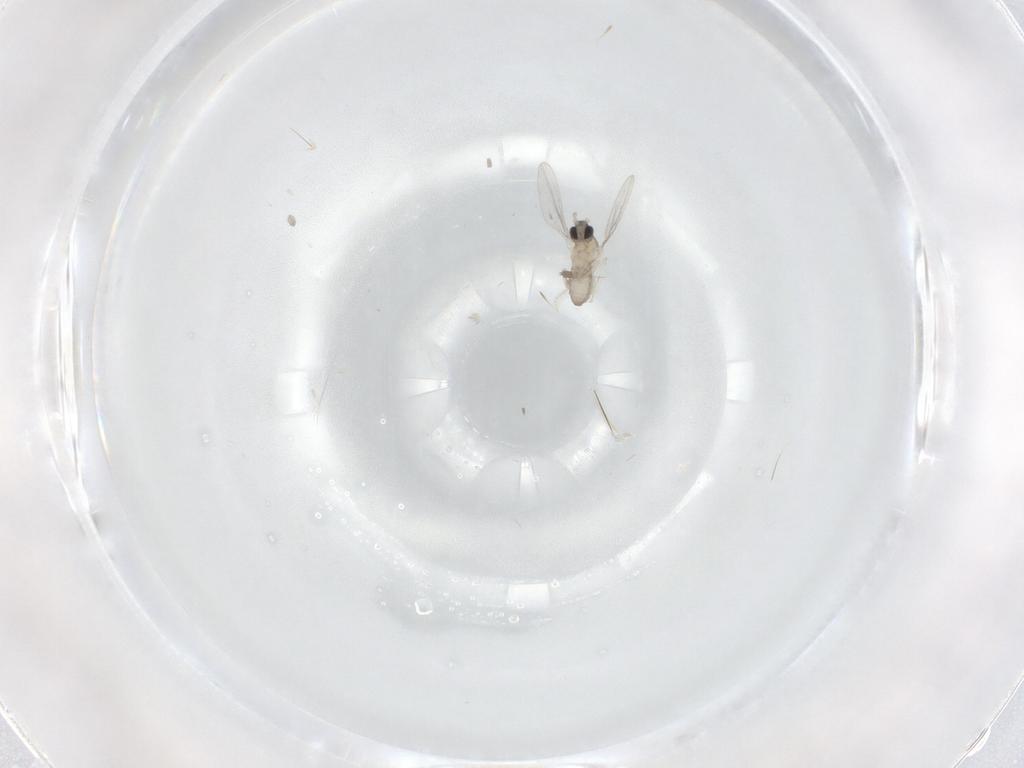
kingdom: Animalia
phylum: Arthropoda
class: Insecta
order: Diptera
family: Cecidomyiidae
